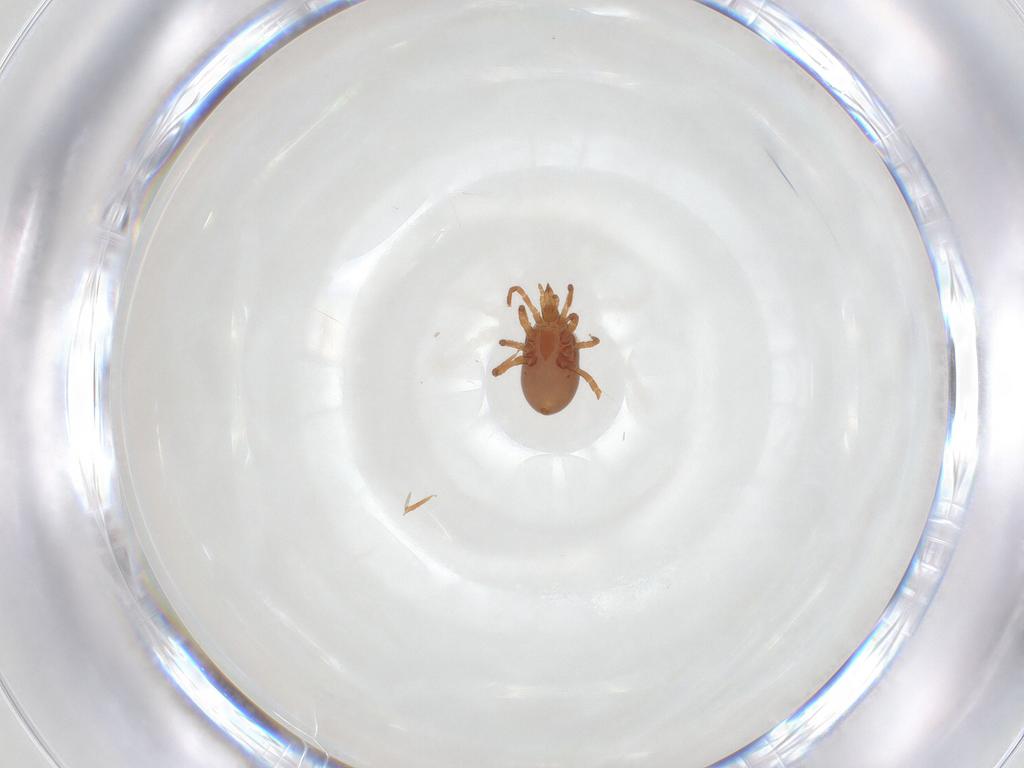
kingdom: Animalia
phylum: Arthropoda
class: Arachnida
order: Mesostigmata
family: Parasitidae
